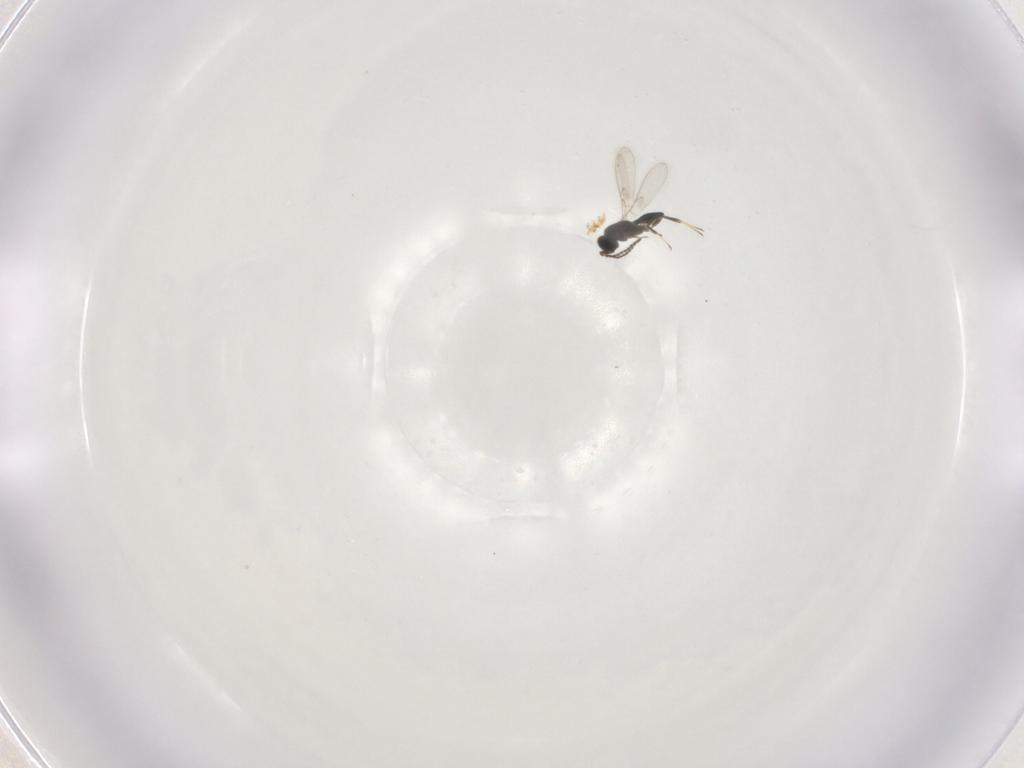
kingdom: Animalia
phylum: Arthropoda
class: Insecta
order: Hymenoptera
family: Scelionidae
